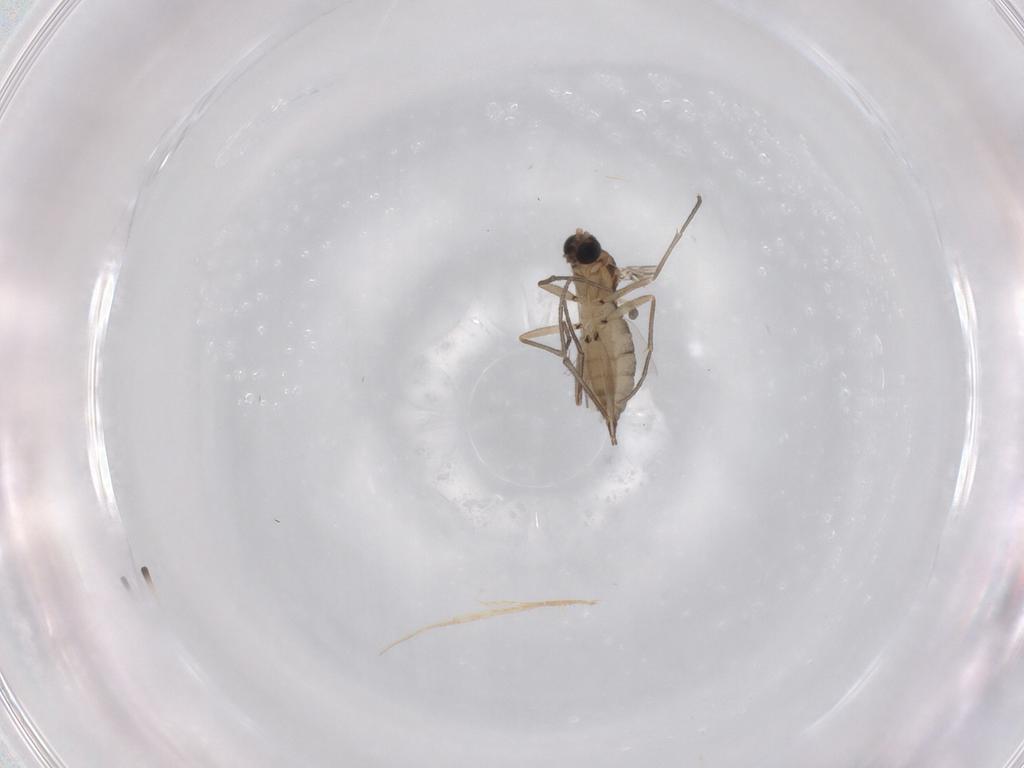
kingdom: Animalia
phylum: Arthropoda
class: Insecta
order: Diptera
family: Sciaridae
